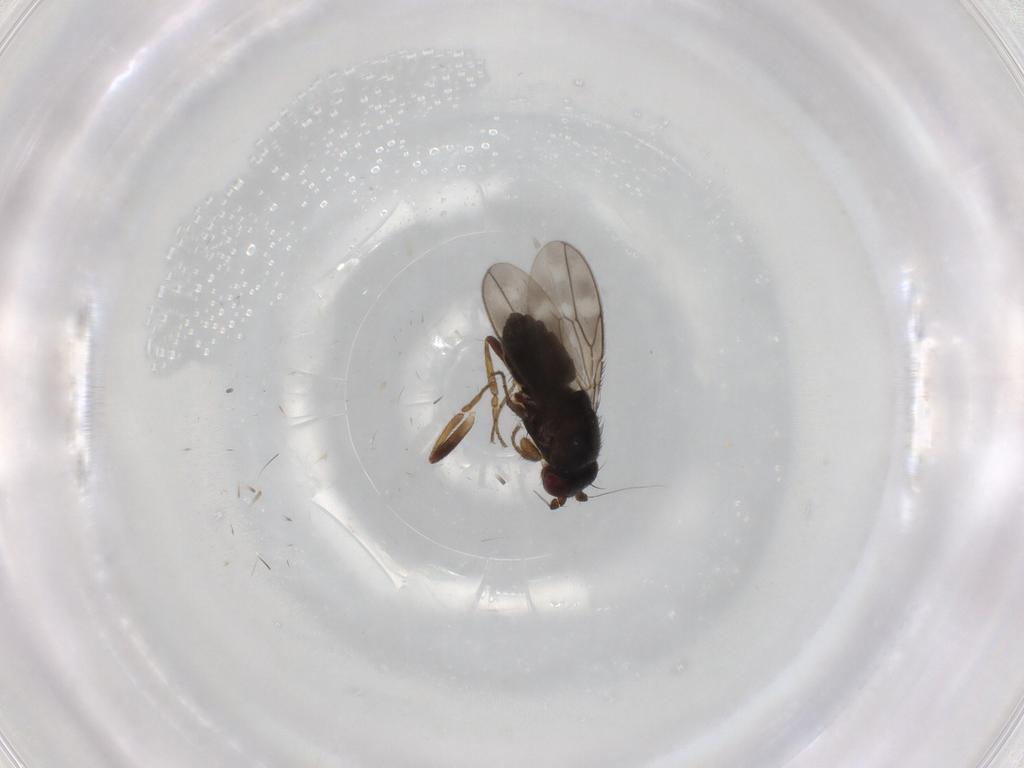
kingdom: Animalia
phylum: Arthropoda
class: Insecta
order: Diptera
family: Sphaeroceridae
